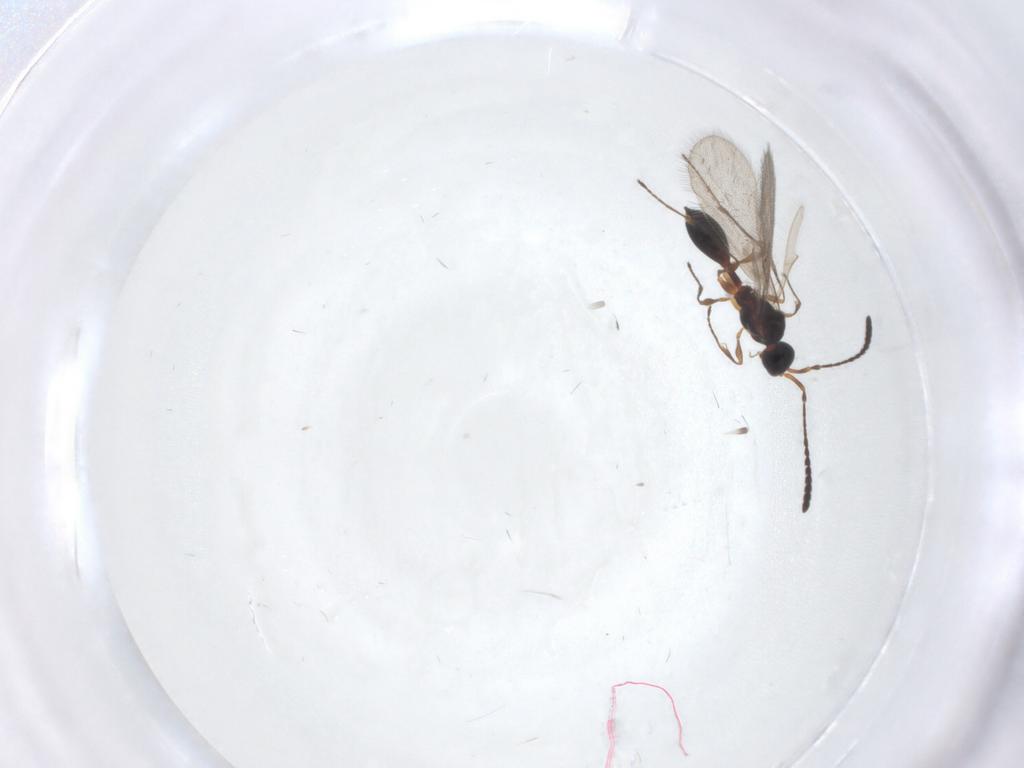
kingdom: Animalia
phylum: Arthropoda
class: Insecta
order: Hymenoptera
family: Diapriidae
